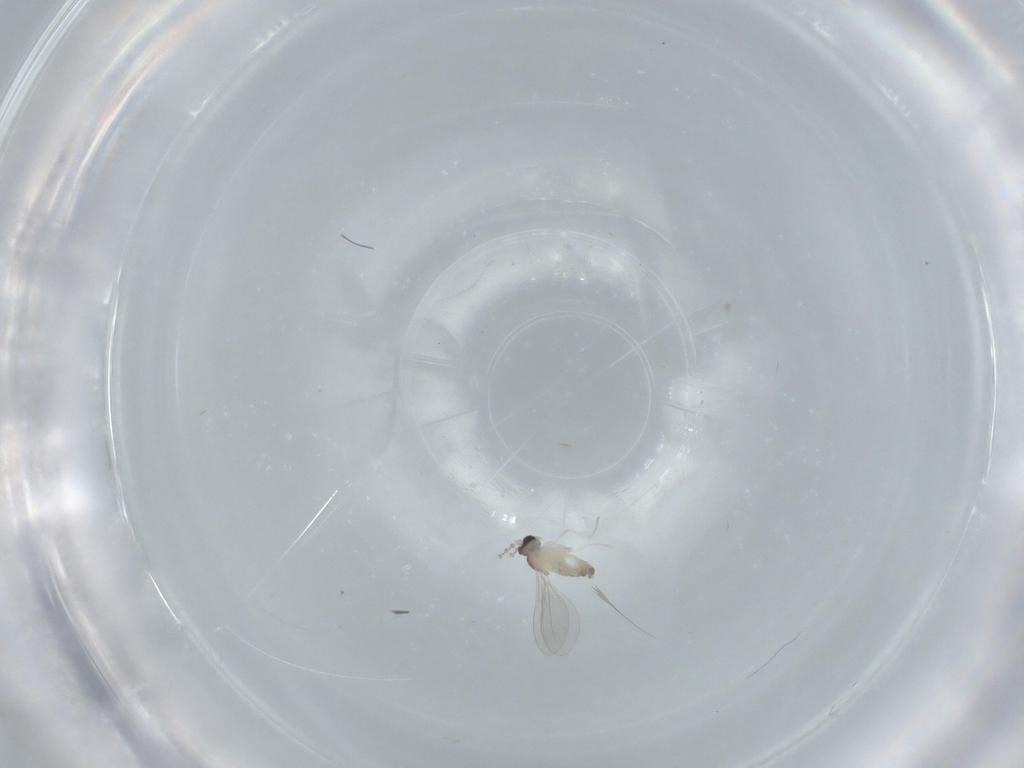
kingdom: Animalia
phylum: Arthropoda
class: Insecta
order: Diptera
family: Cecidomyiidae
